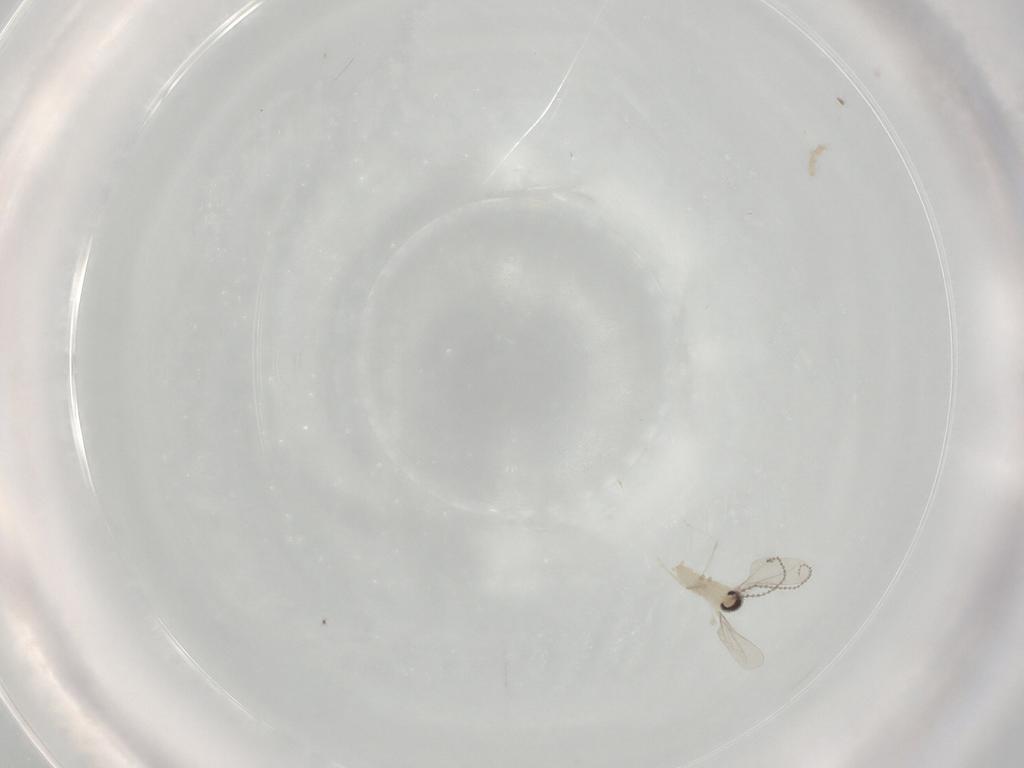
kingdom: Animalia
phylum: Arthropoda
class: Insecta
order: Diptera
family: Cecidomyiidae
